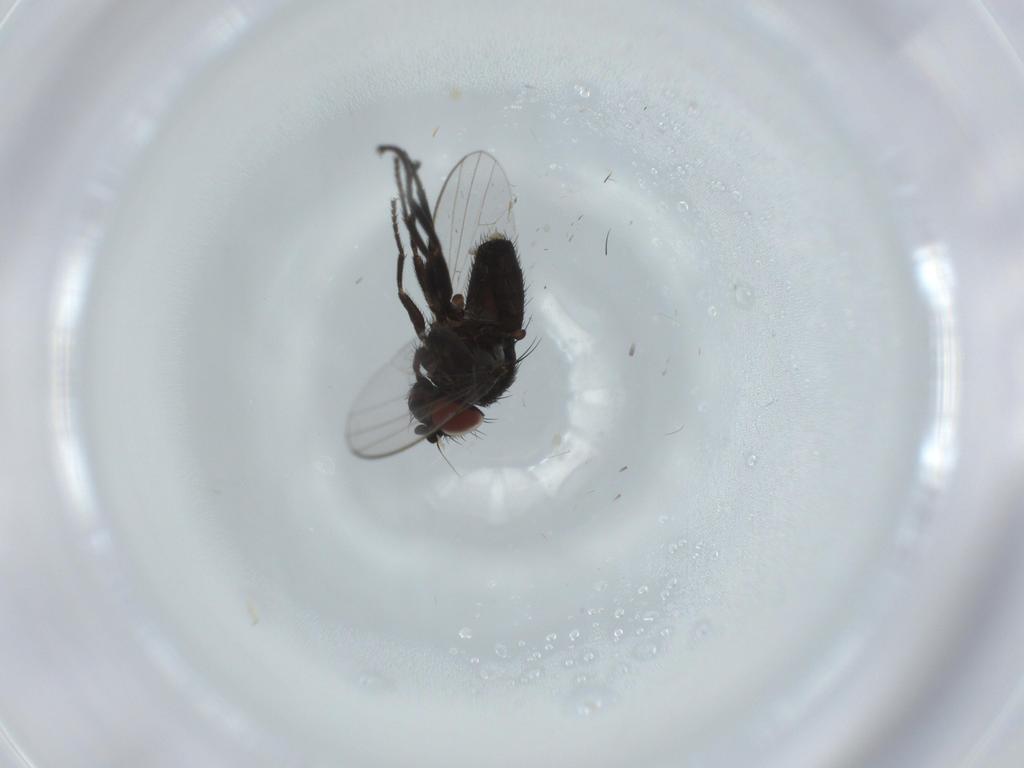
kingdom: Animalia
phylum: Arthropoda
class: Insecta
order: Diptera
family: Milichiidae
